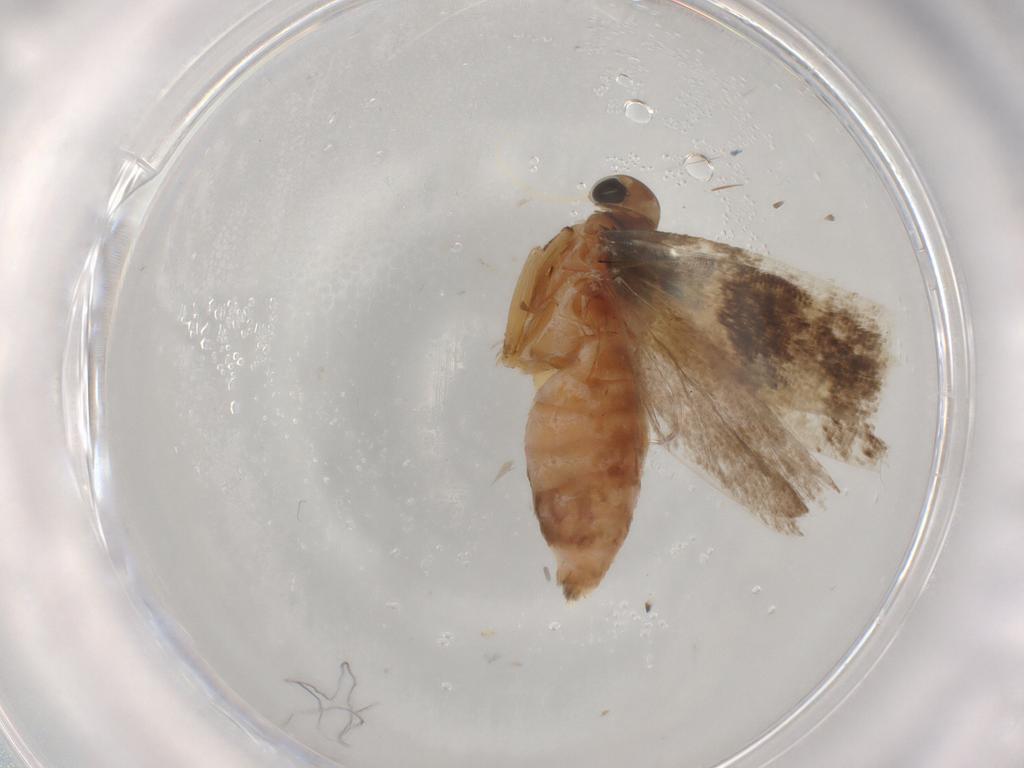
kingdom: Animalia
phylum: Arthropoda
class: Insecta
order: Lepidoptera
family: Gelechiidae
